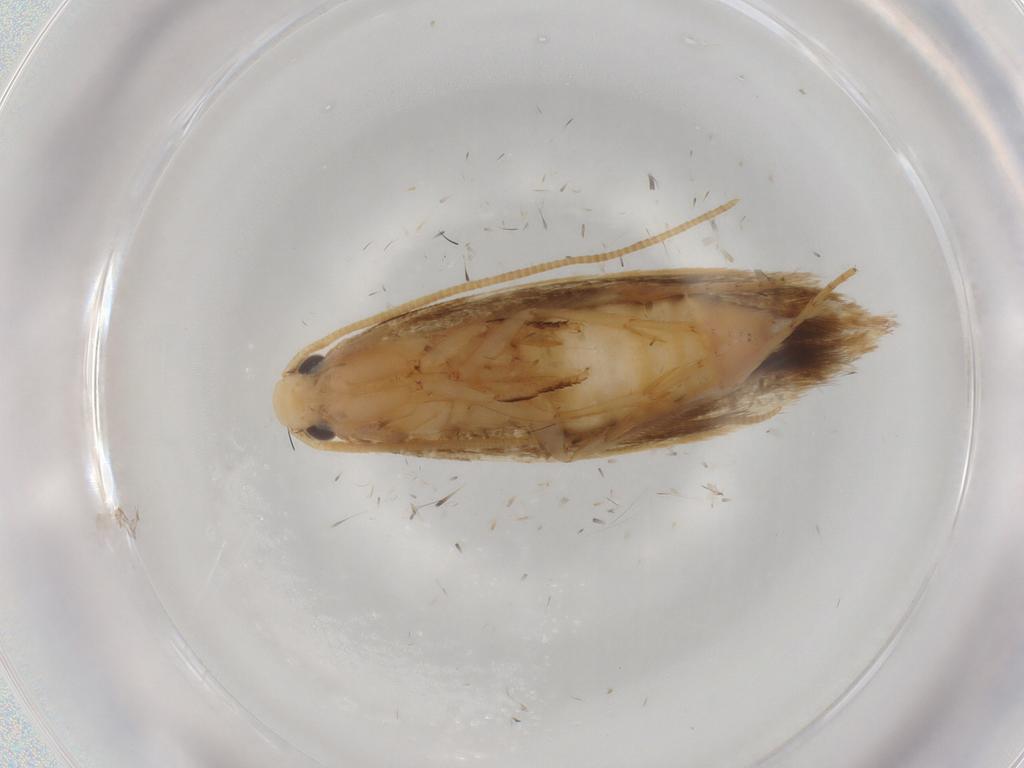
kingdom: Animalia
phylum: Arthropoda
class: Insecta
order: Lepidoptera
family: Tineidae
